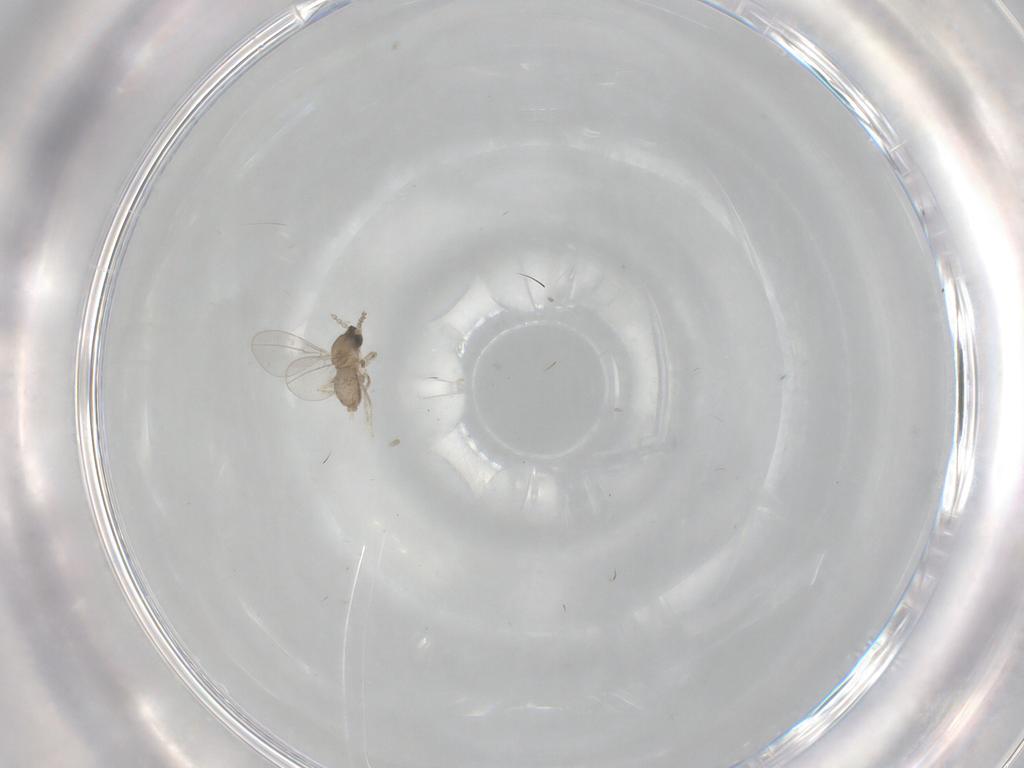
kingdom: Animalia
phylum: Arthropoda
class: Insecta
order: Diptera
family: Cecidomyiidae
